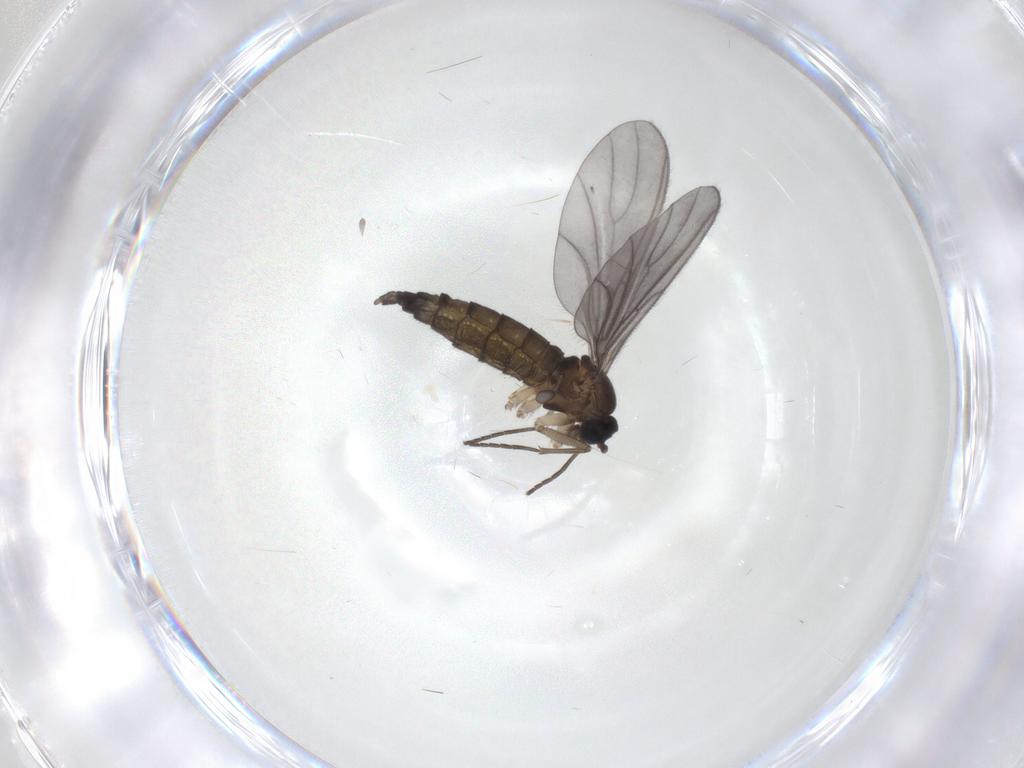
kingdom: Animalia
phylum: Arthropoda
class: Insecta
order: Diptera
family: Sciaridae
